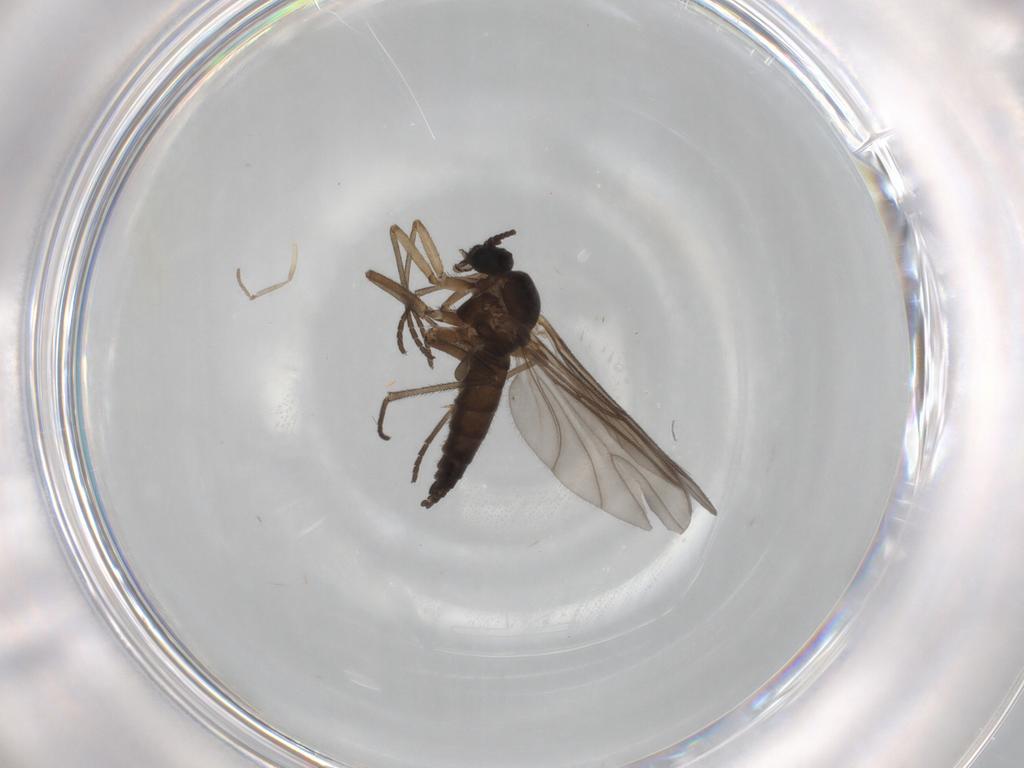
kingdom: Animalia
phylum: Arthropoda
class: Insecta
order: Diptera
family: Sciaridae
